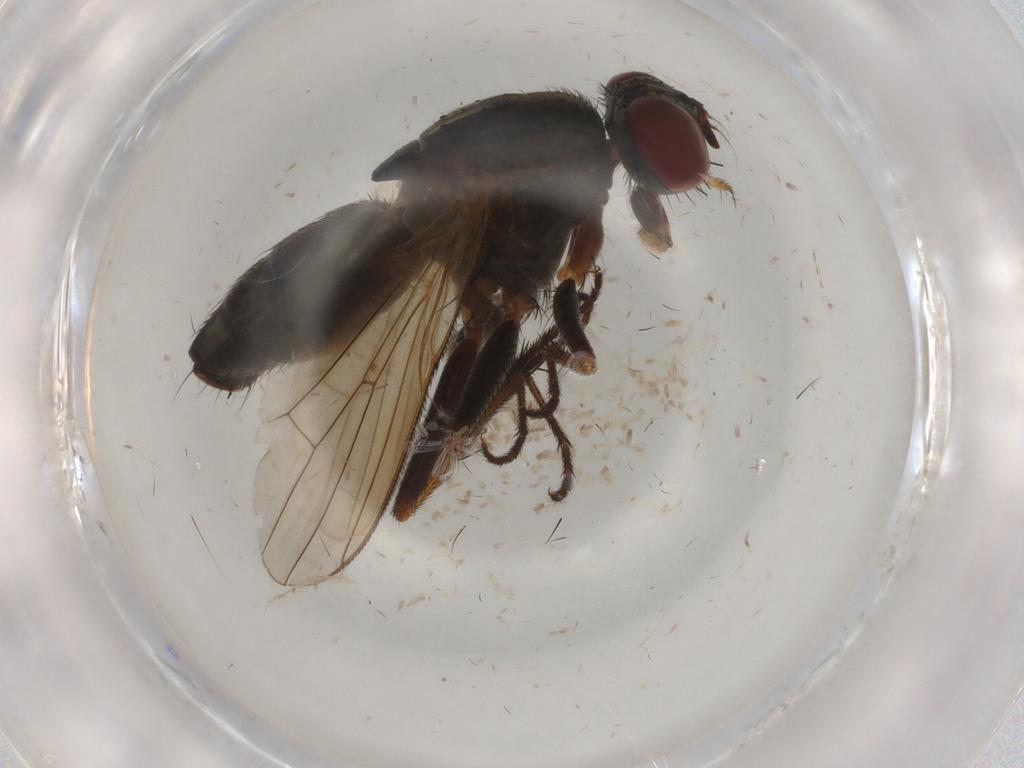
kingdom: Animalia
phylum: Arthropoda
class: Insecta
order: Diptera
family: Muscidae
